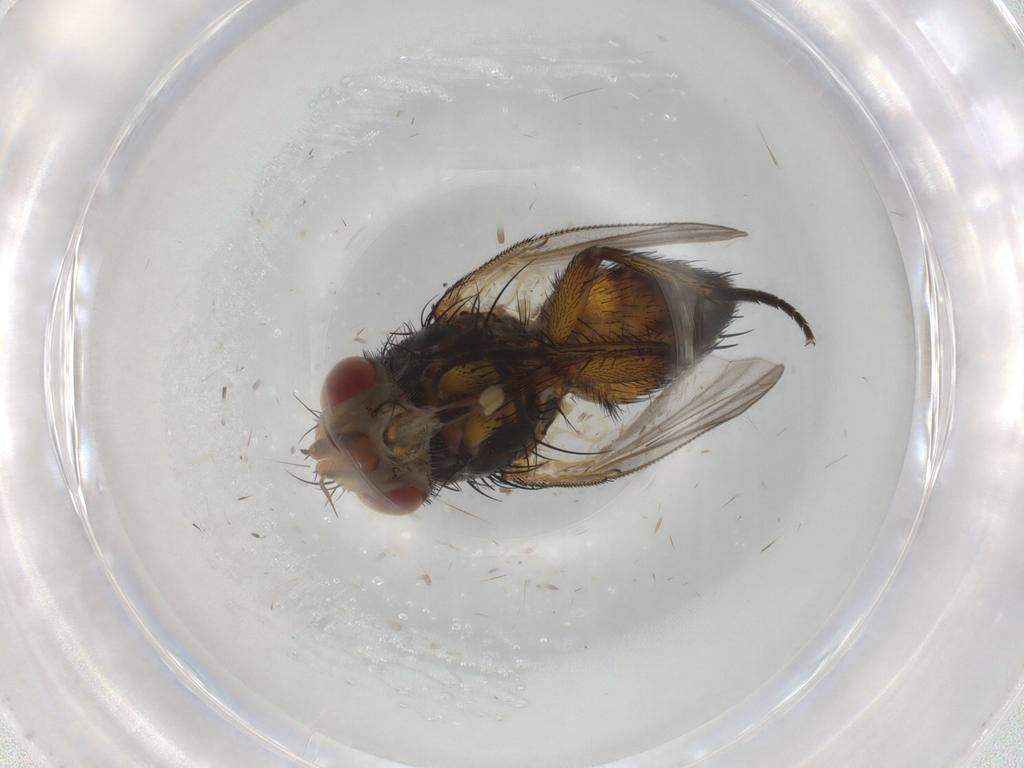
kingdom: Animalia
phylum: Arthropoda
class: Insecta
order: Diptera
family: Tachinidae
